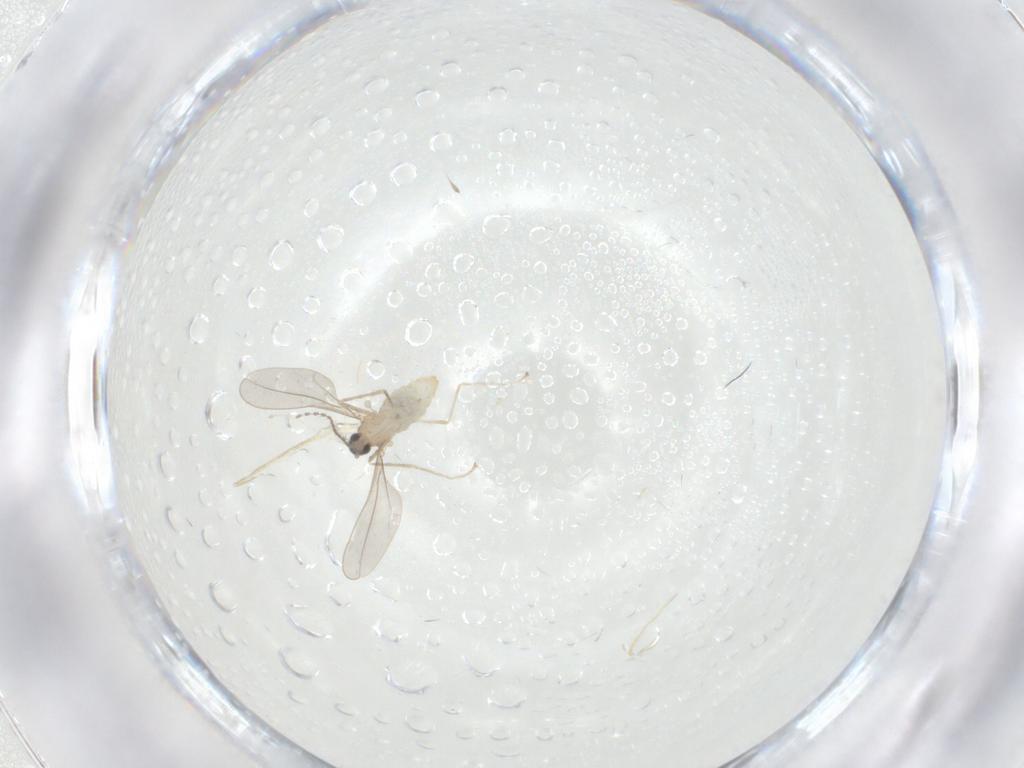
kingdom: Animalia
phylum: Arthropoda
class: Insecta
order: Diptera
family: Cecidomyiidae
